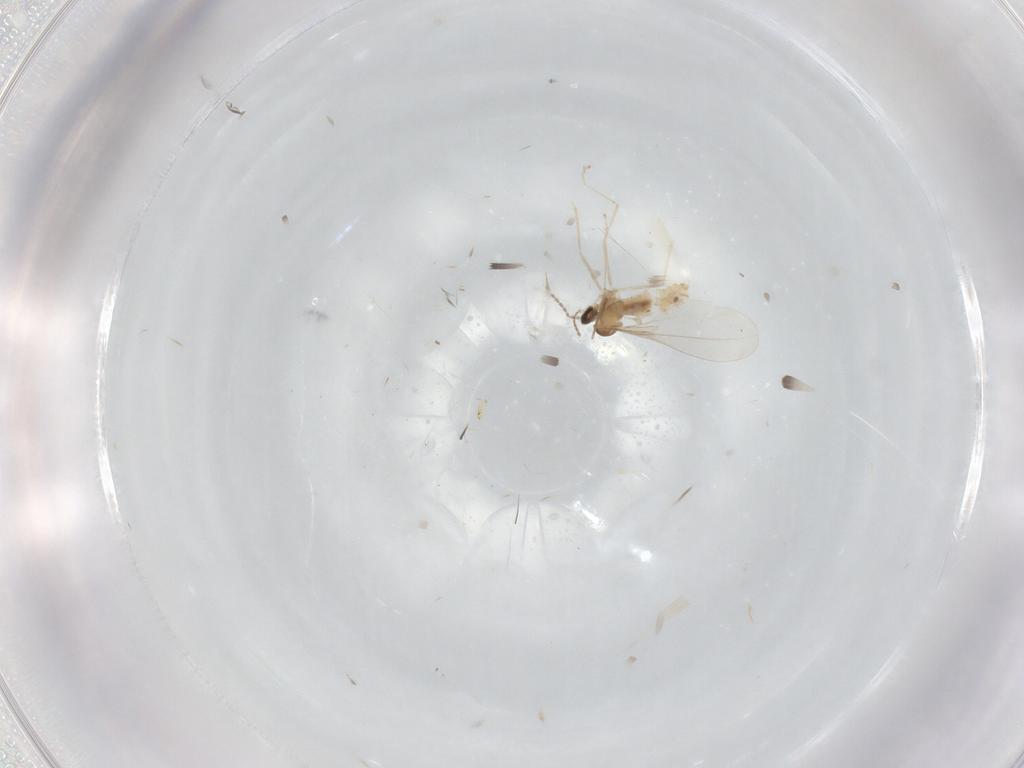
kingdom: Animalia
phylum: Arthropoda
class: Insecta
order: Diptera
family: Cecidomyiidae
